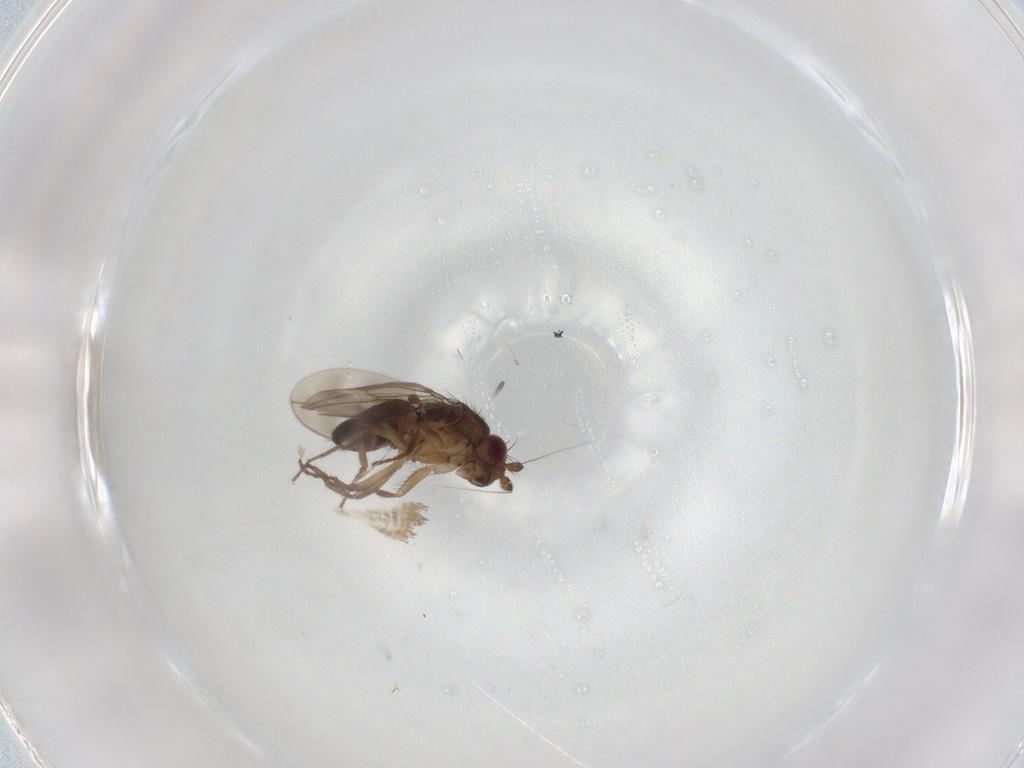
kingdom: Animalia
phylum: Arthropoda
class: Insecta
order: Diptera
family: Sphaeroceridae
